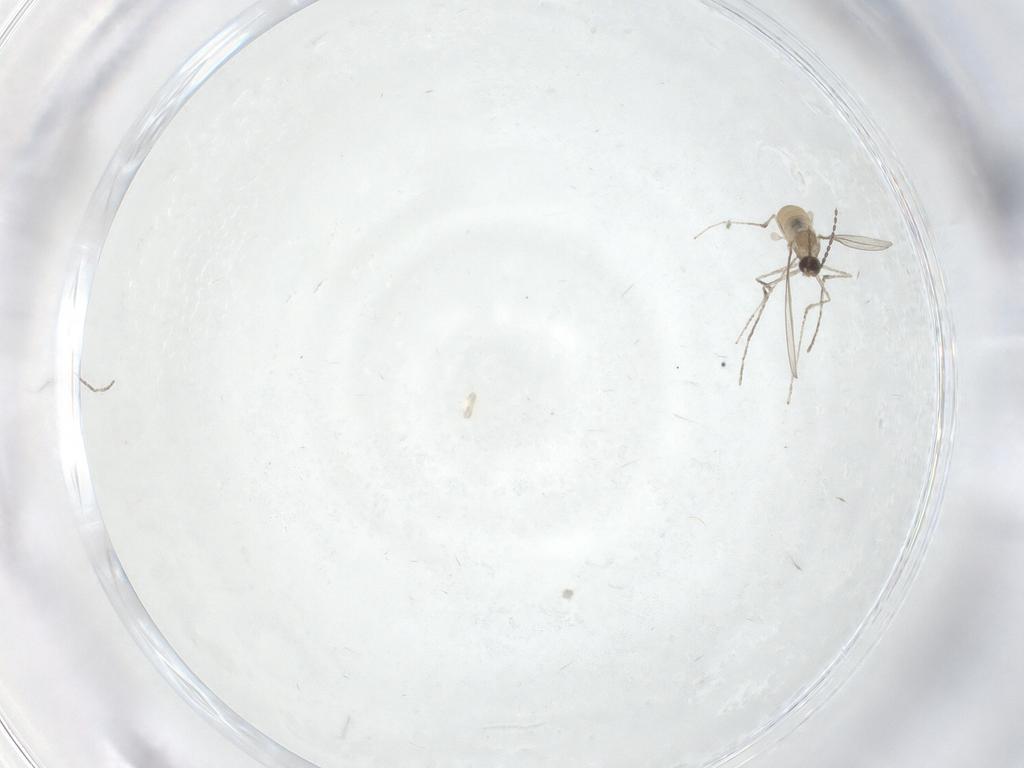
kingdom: Animalia
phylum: Arthropoda
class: Insecta
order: Diptera
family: Cecidomyiidae
